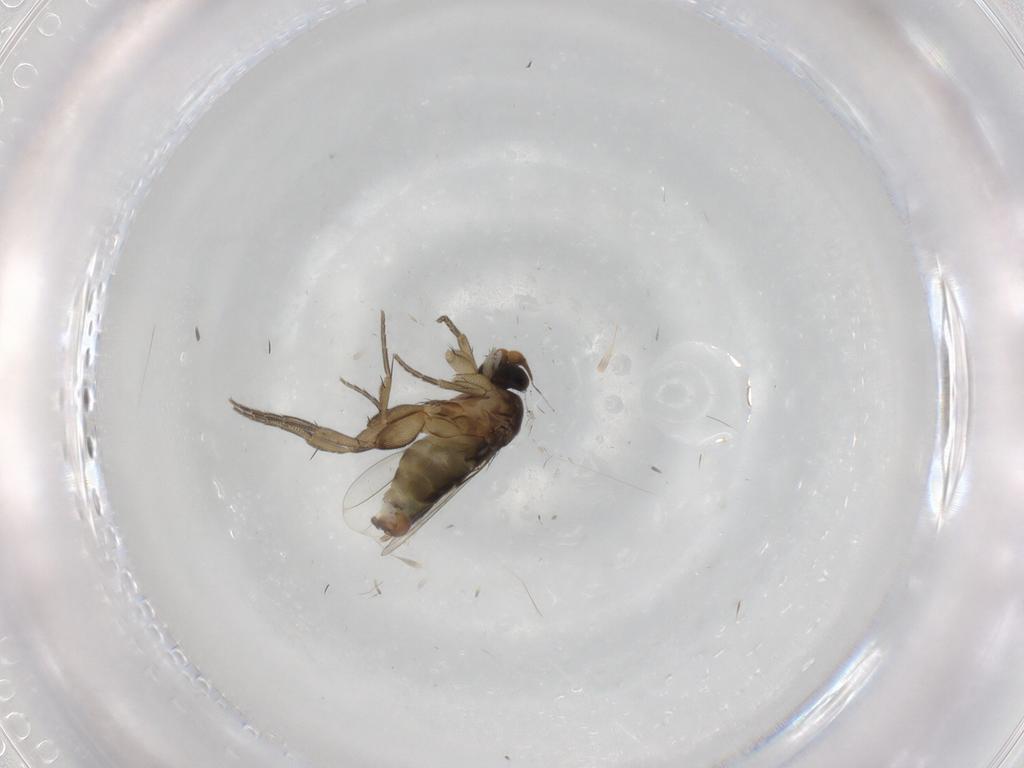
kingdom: Animalia
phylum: Arthropoda
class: Insecta
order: Diptera
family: Phoridae
